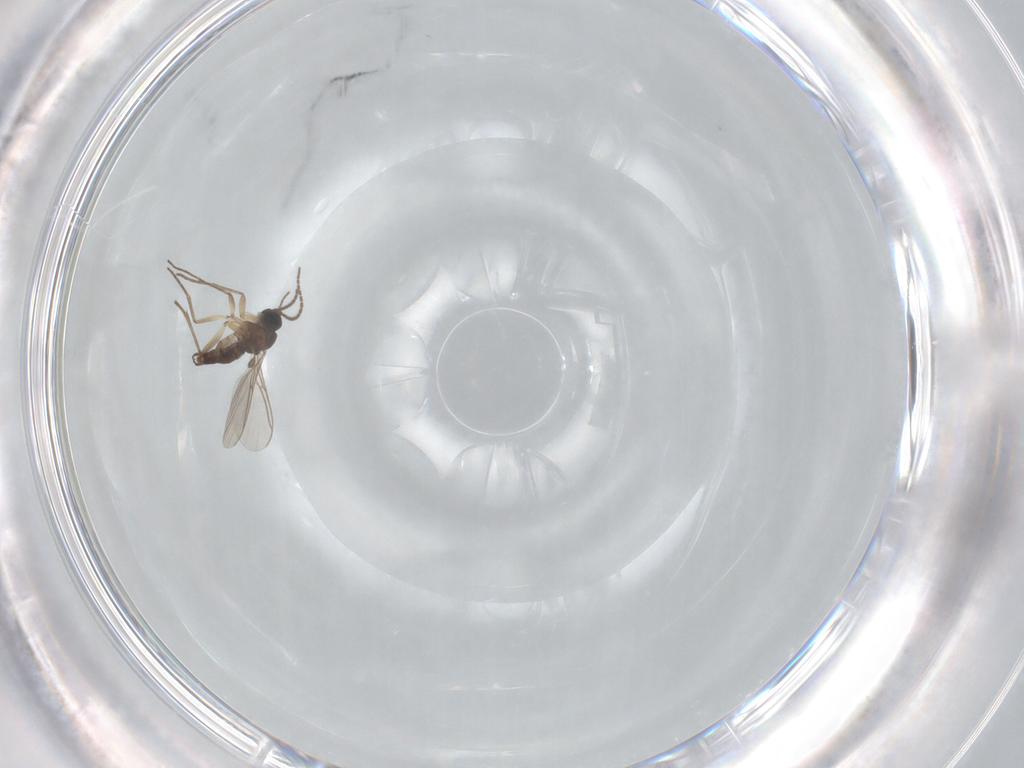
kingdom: Animalia
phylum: Arthropoda
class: Insecta
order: Diptera
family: Sciaridae
